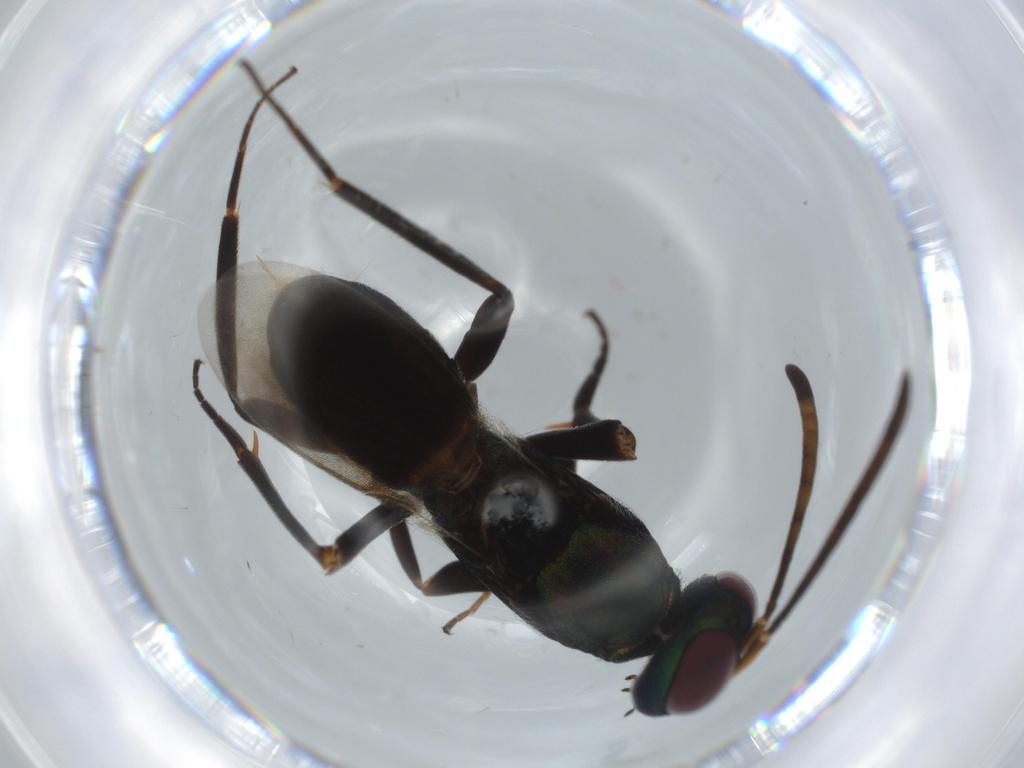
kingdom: Animalia
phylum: Arthropoda
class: Insecta
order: Hymenoptera
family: Eupelmidae
